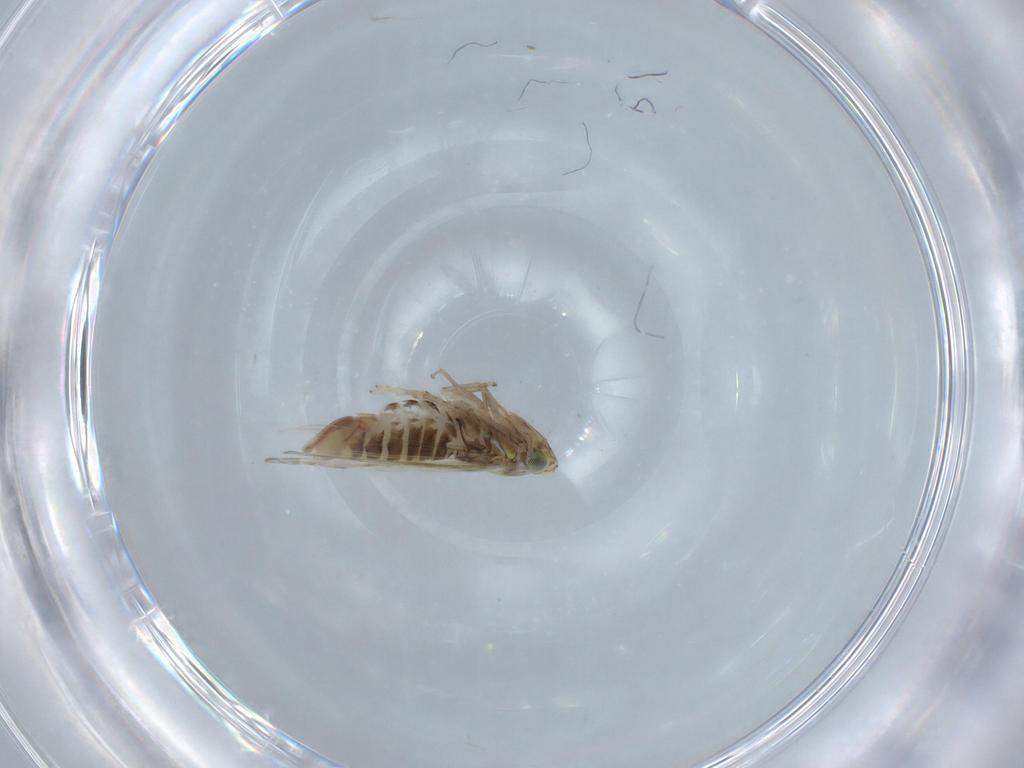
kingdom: Animalia
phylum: Arthropoda
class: Insecta
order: Hemiptera
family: Cicadellidae
